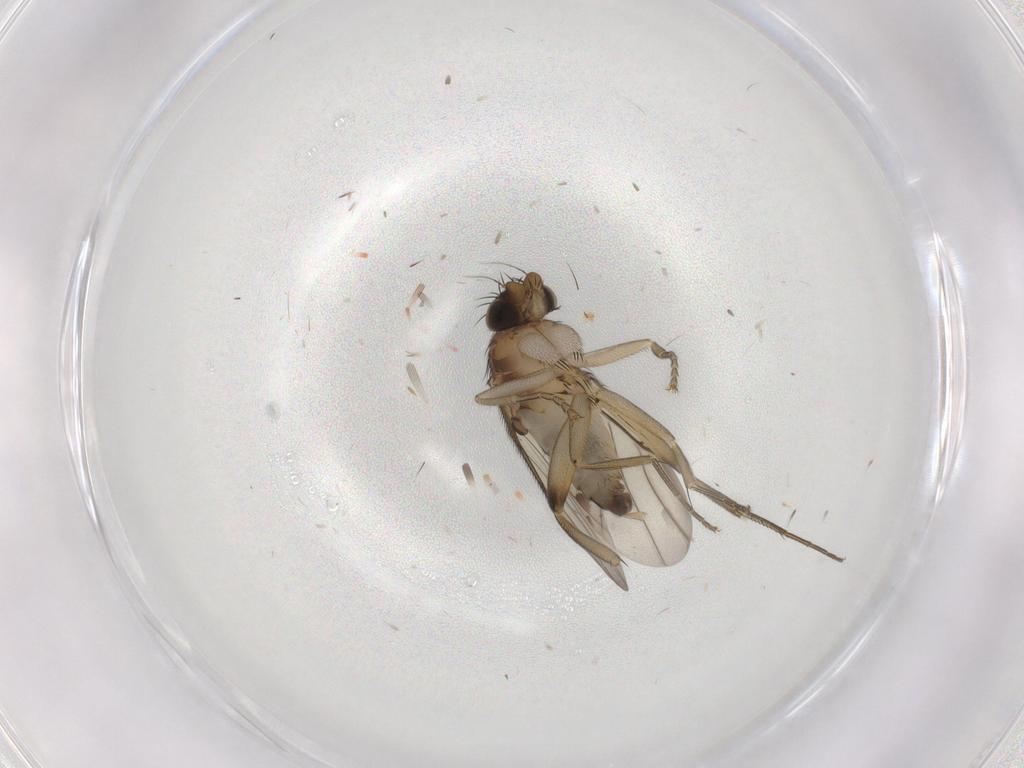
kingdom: Animalia
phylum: Arthropoda
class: Insecta
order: Diptera
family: Phoridae
